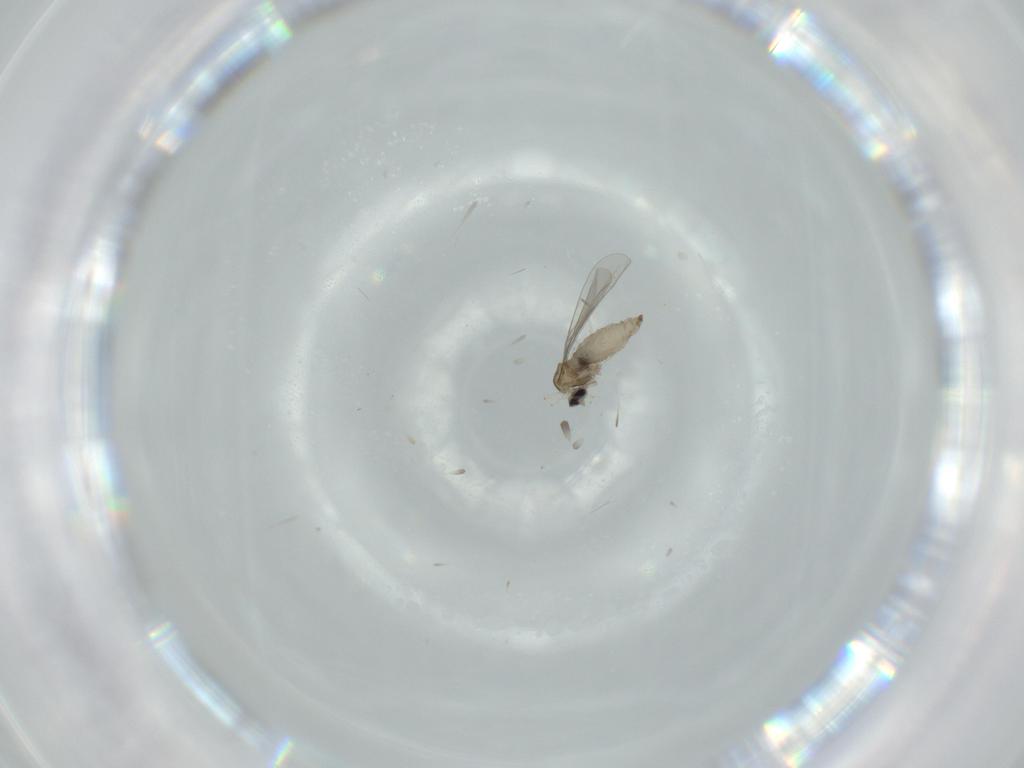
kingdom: Animalia
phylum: Arthropoda
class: Insecta
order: Diptera
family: Cecidomyiidae
